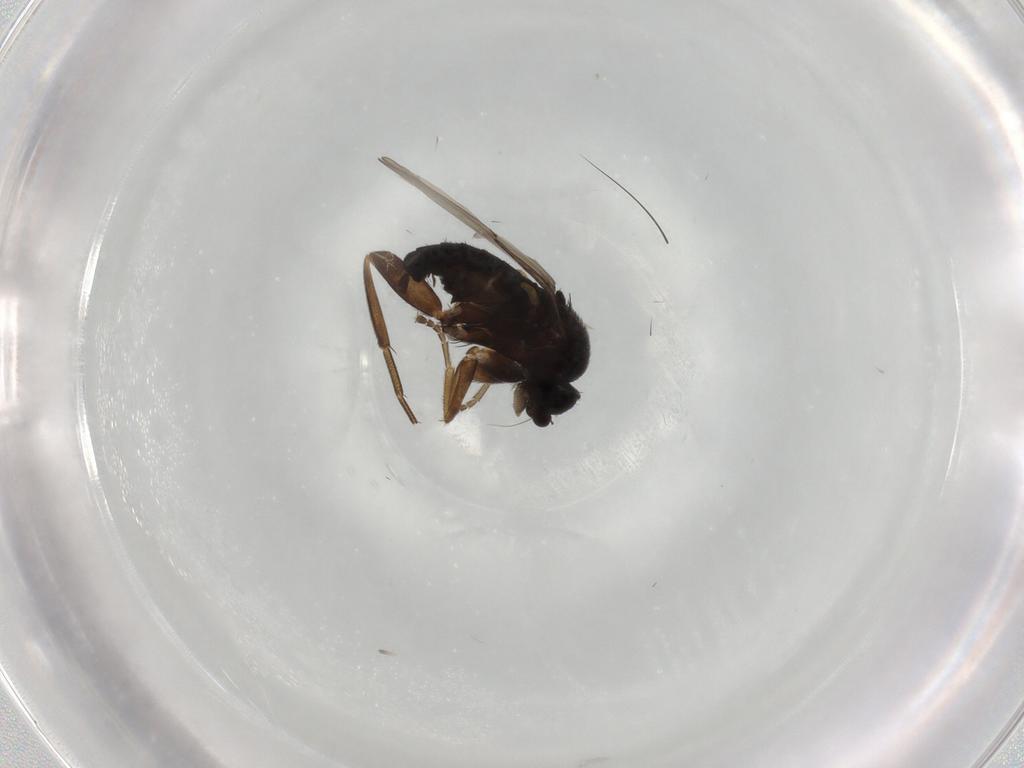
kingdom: Animalia
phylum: Arthropoda
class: Insecta
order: Diptera
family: Phoridae
